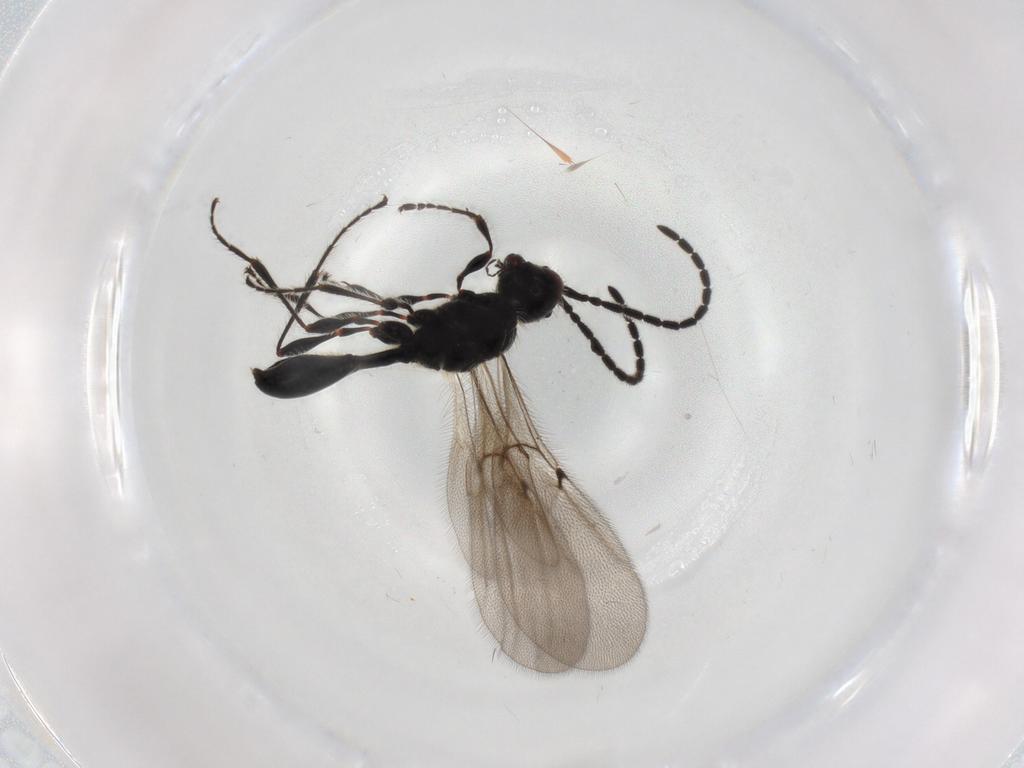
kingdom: Animalia
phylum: Arthropoda
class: Insecta
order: Hymenoptera
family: Diapriidae
